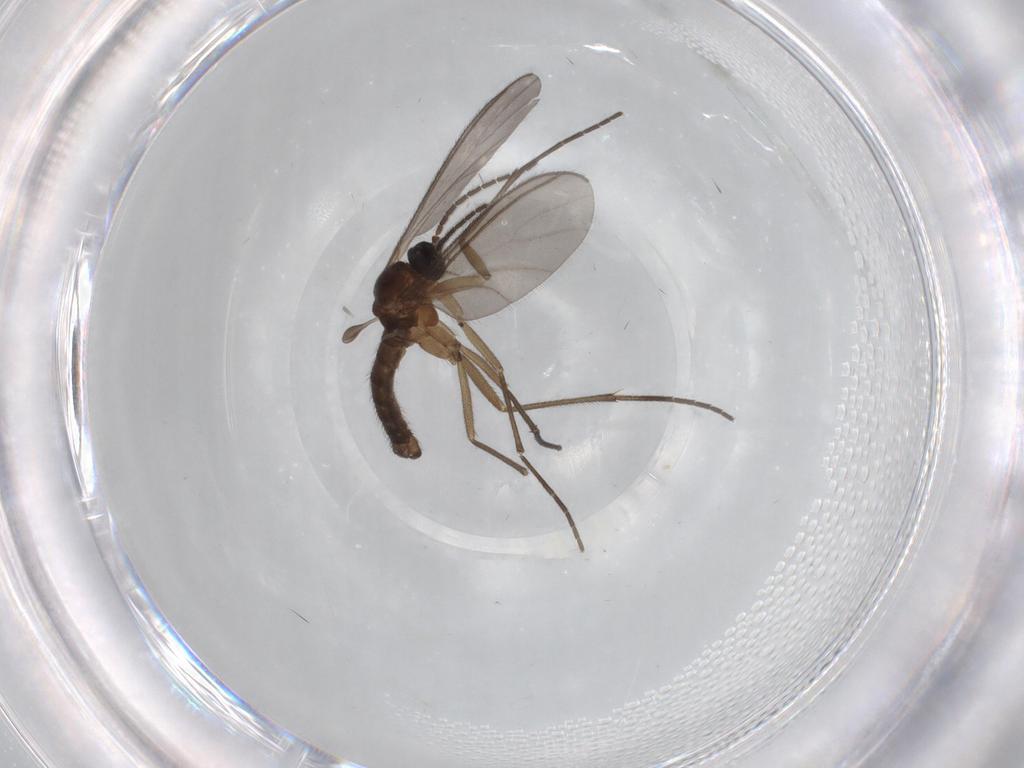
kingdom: Animalia
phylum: Arthropoda
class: Insecta
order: Diptera
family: Sciaridae
